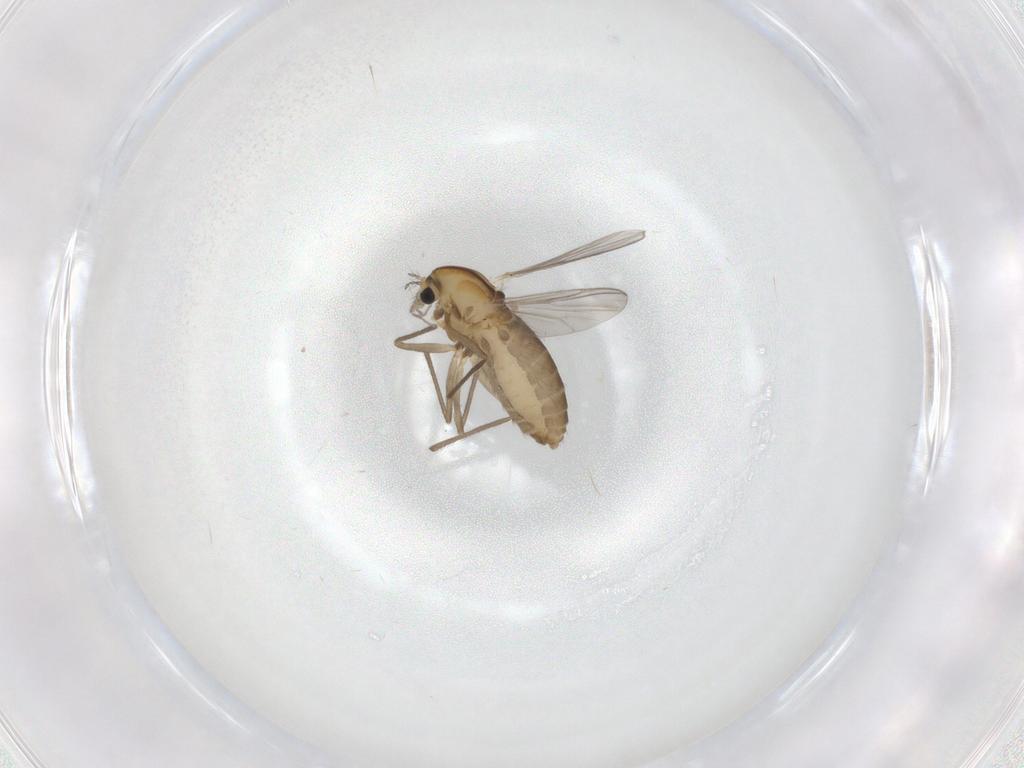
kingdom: Animalia
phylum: Arthropoda
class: Insecta
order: Diptera
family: Chironomidae
